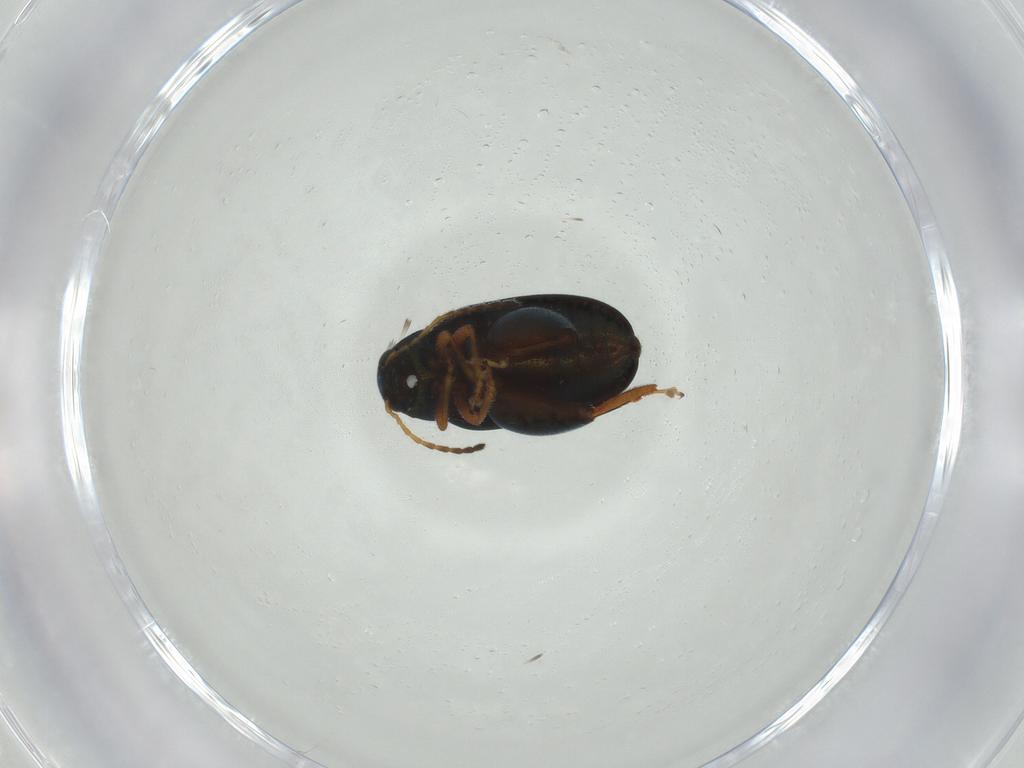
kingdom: Animalia
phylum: Arthropoda
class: Insecta
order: Coleoptera
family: Chrysomelidae
